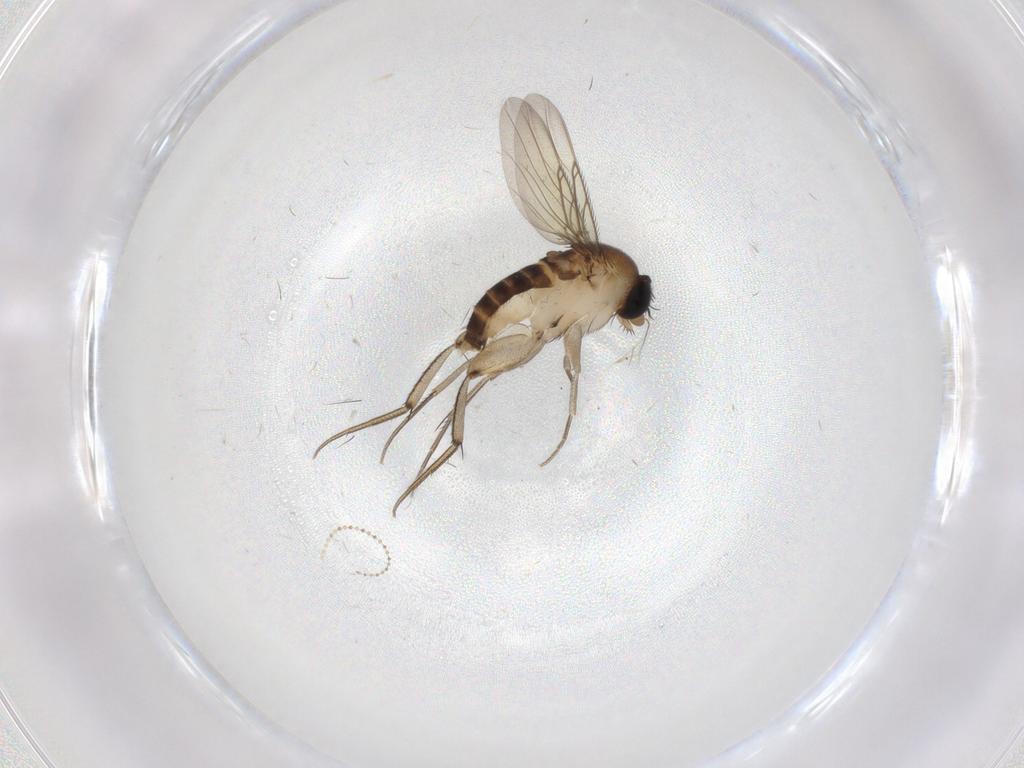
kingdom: Animalia
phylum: Arthropoda
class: Insecta
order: Diptera
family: Phoridae
